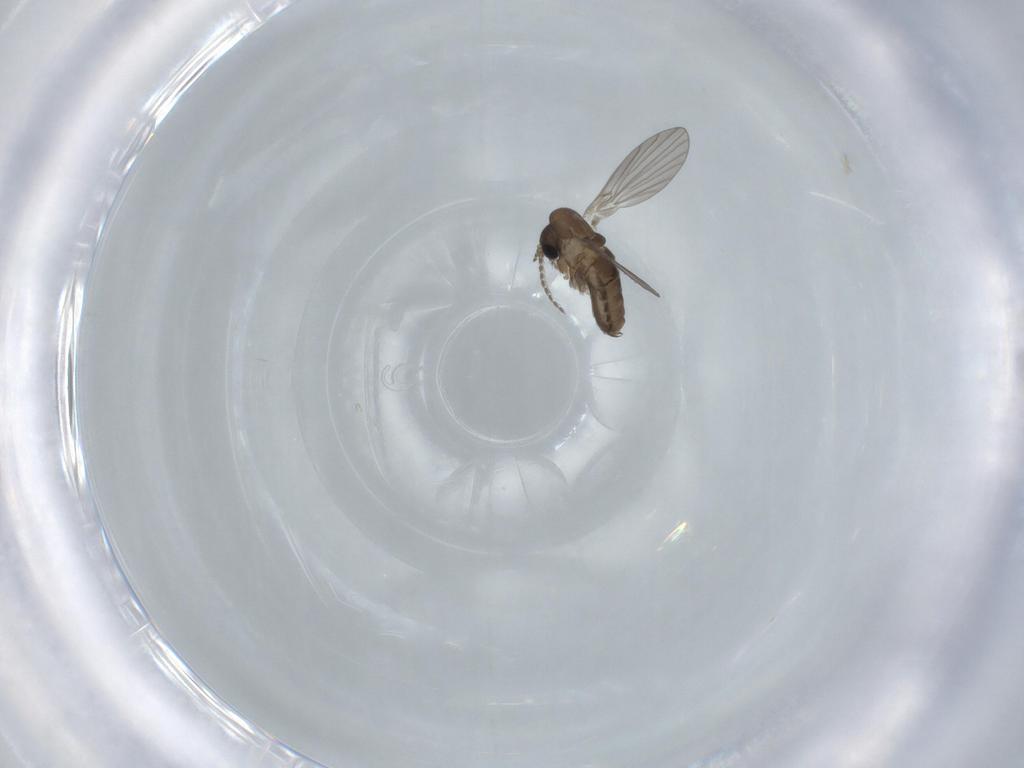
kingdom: Animalia
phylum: Arthropoda
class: Insecta
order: Diptera
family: Psychodidae
